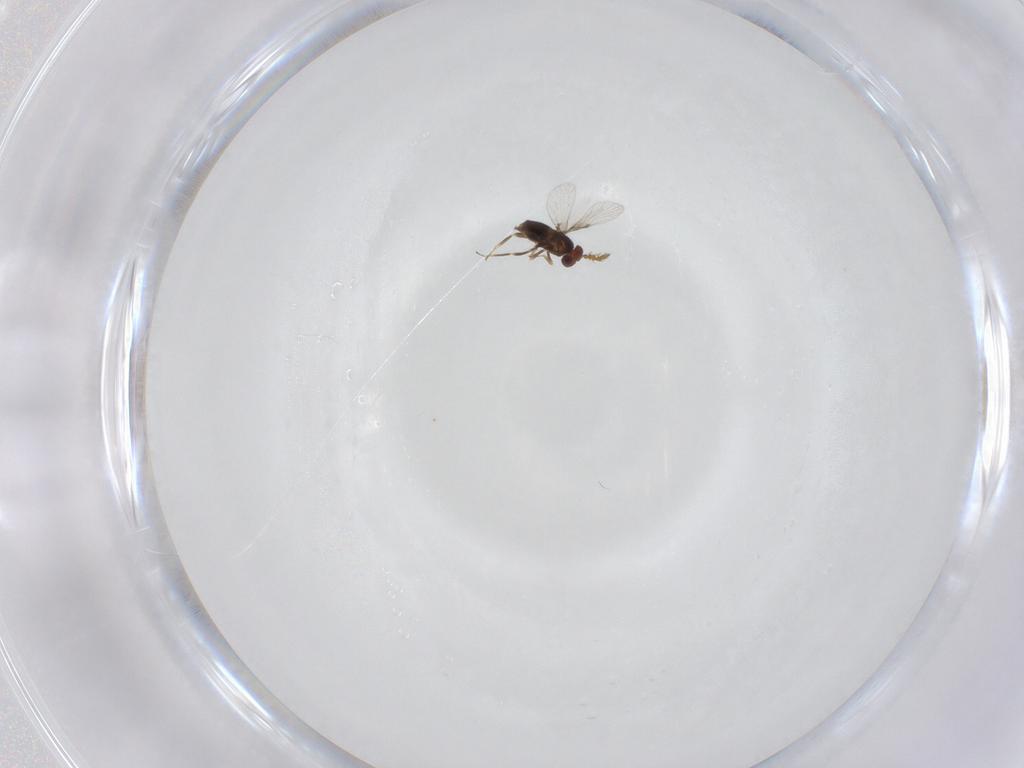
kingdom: Animalia
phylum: Arthropoda
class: Insecta
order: Hymenoptera
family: Agaonidae
